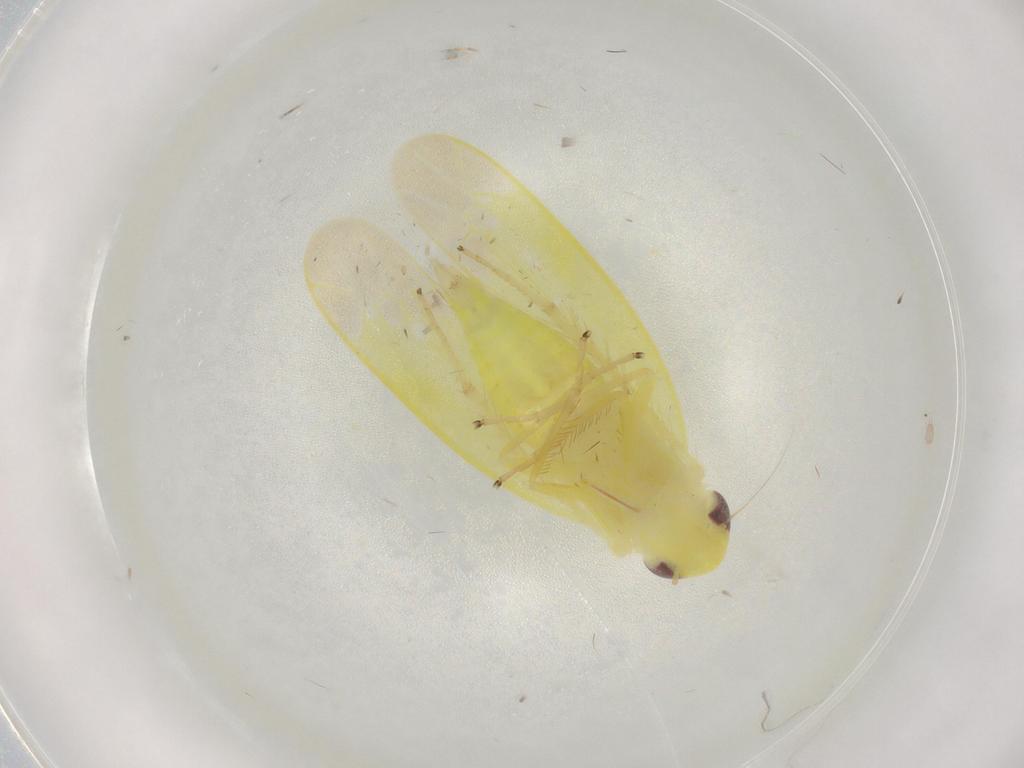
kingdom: Animalia
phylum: Arthropoda
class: Insecta
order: Hemiptera
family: Cicadellidae
